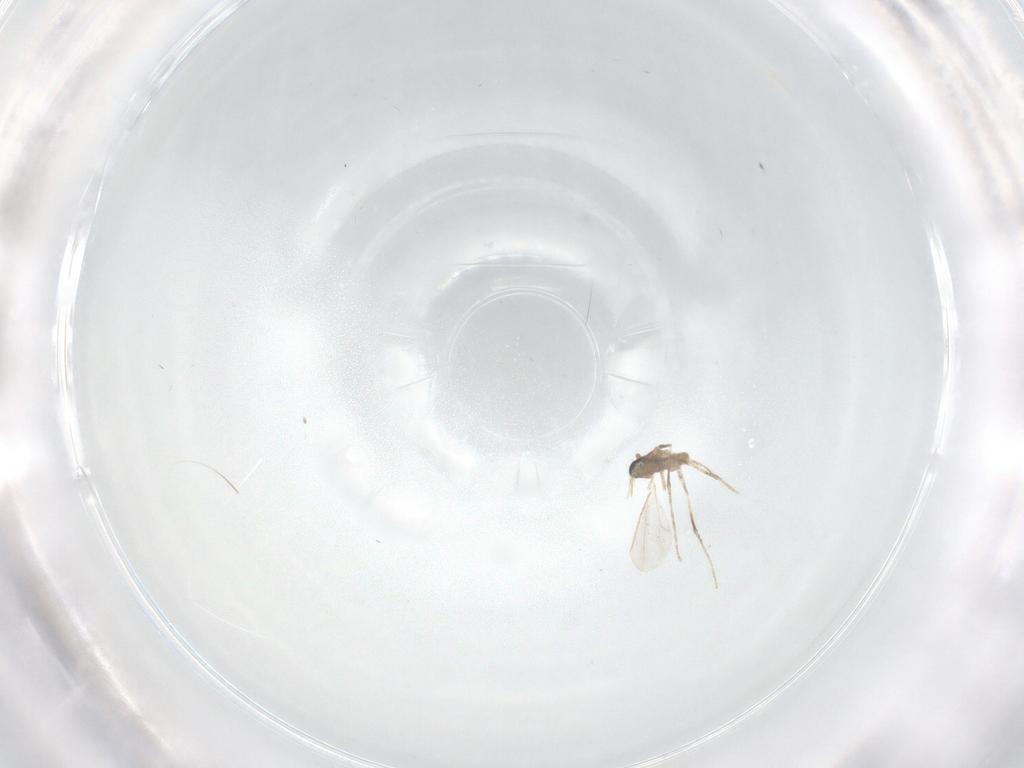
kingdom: Animalia
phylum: Arthropoda
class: Insecta
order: Diptera
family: Cecidomyiidae
